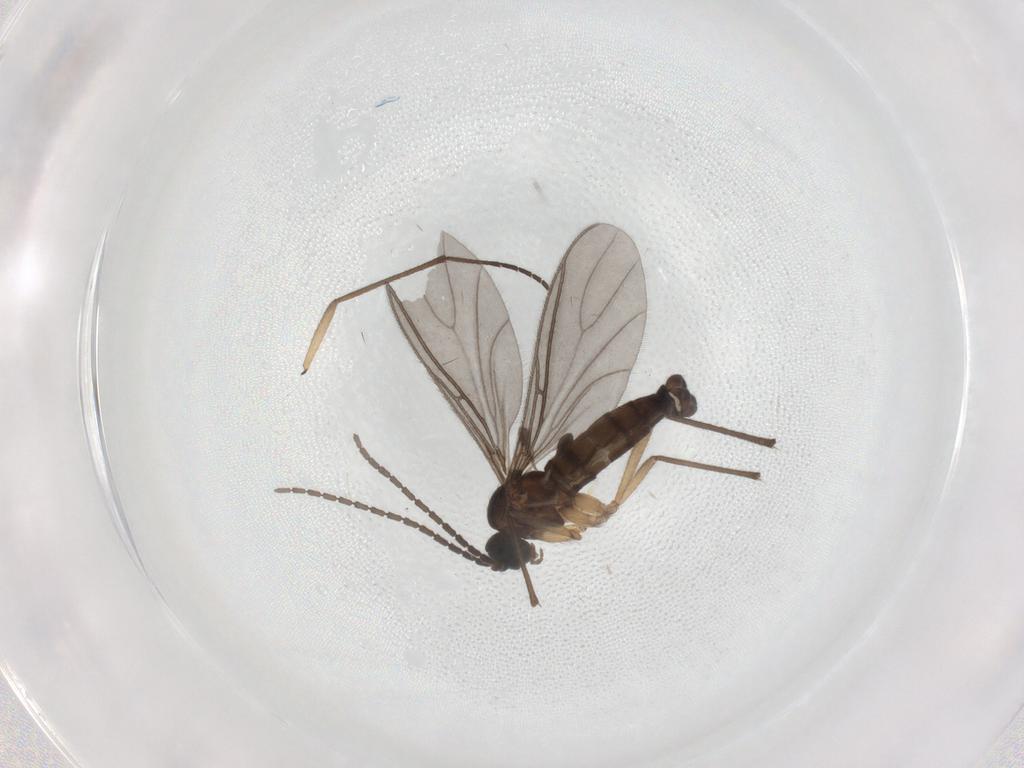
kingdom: Animalia
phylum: Arthropoda
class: Insecta
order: Diptera
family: Sciaridae
